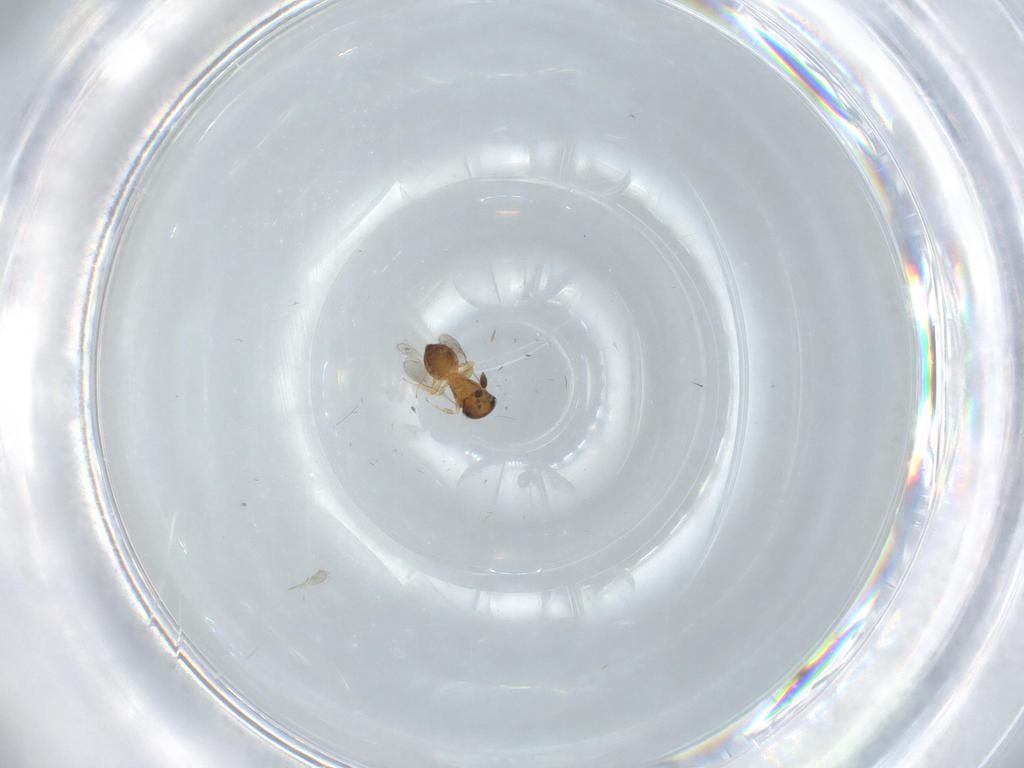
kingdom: Animalia
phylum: Arthropoda
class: Insecta
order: Hymenoptera
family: Scelionidae
